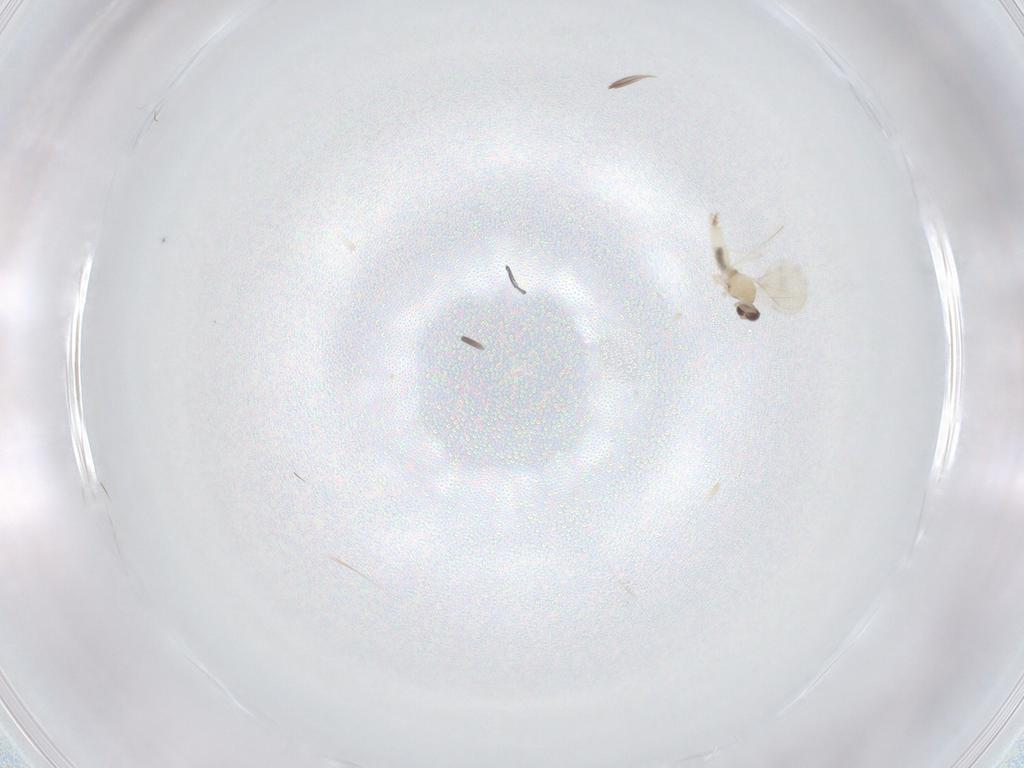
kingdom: Animalia
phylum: Arthropoda
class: Insecta
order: Diptera
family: Cecidomyiidae
